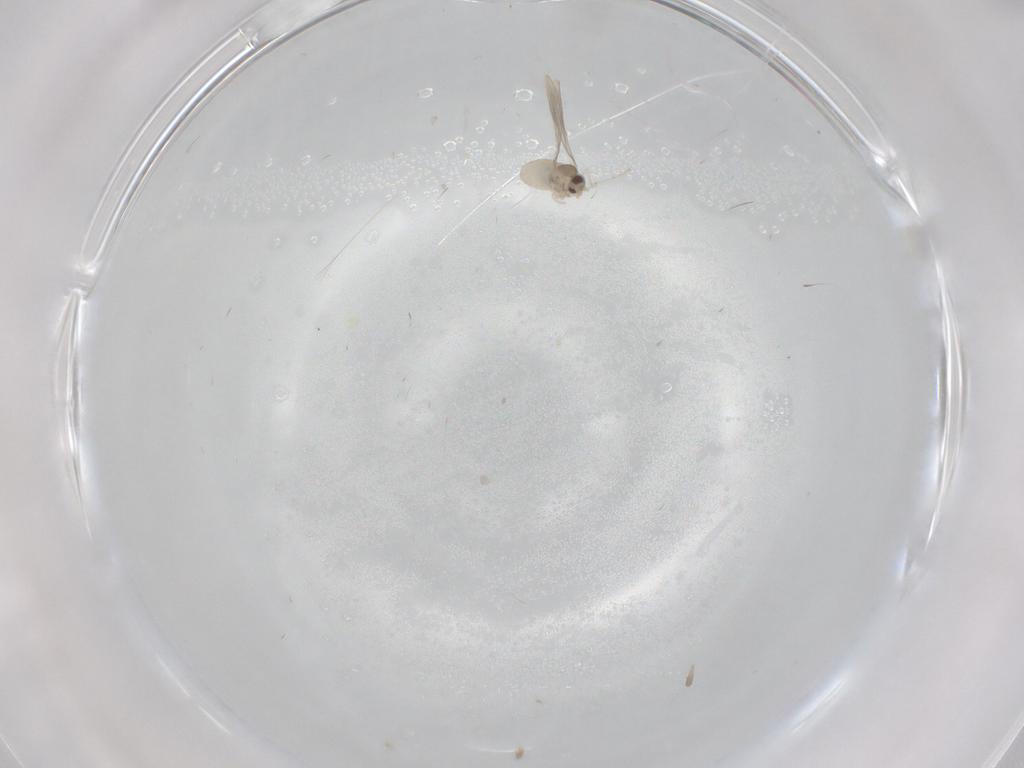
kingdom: Animalia
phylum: Arthropoda
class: Insecta
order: Diptera
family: Cecidomyiidae
